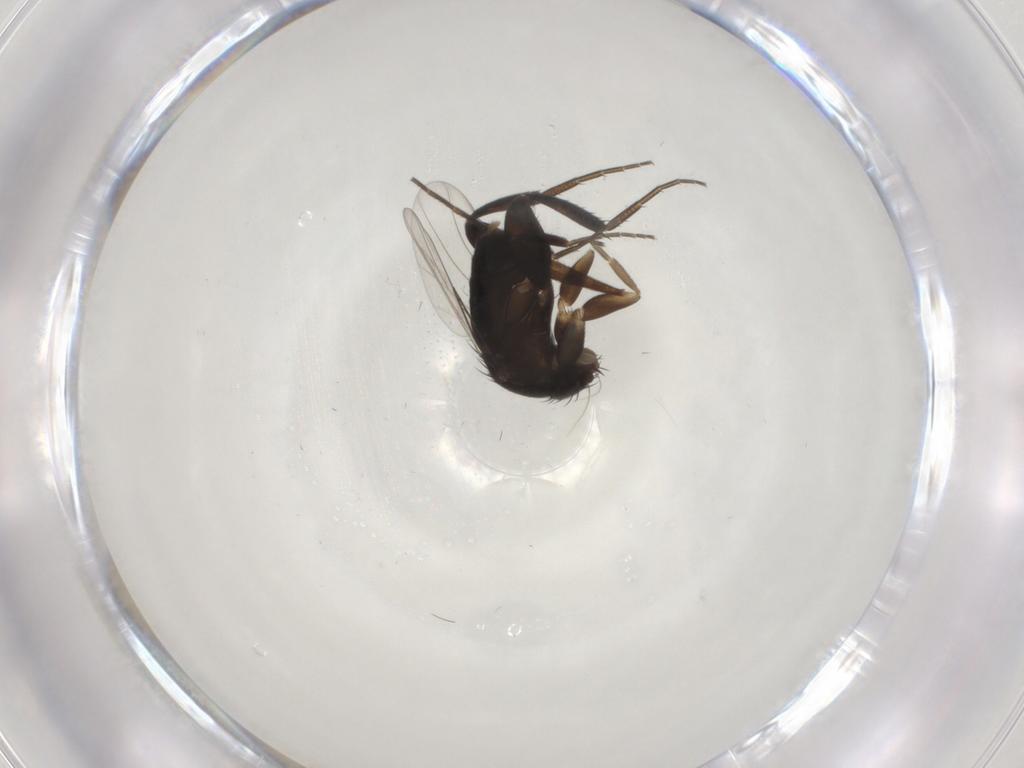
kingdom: Animalia
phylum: Arthropoda
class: Insecta
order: Diptera
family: Phoridae
